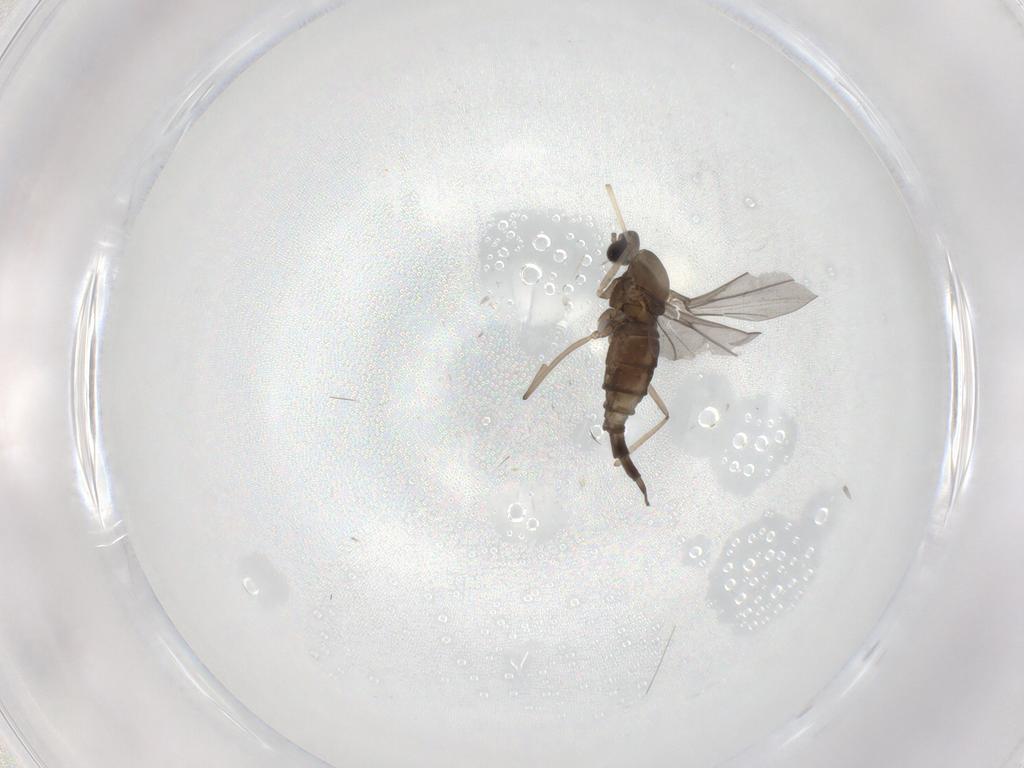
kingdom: Animalia
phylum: Arthropoda
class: Insecta
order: Diptera
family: Cecidomyiidae
